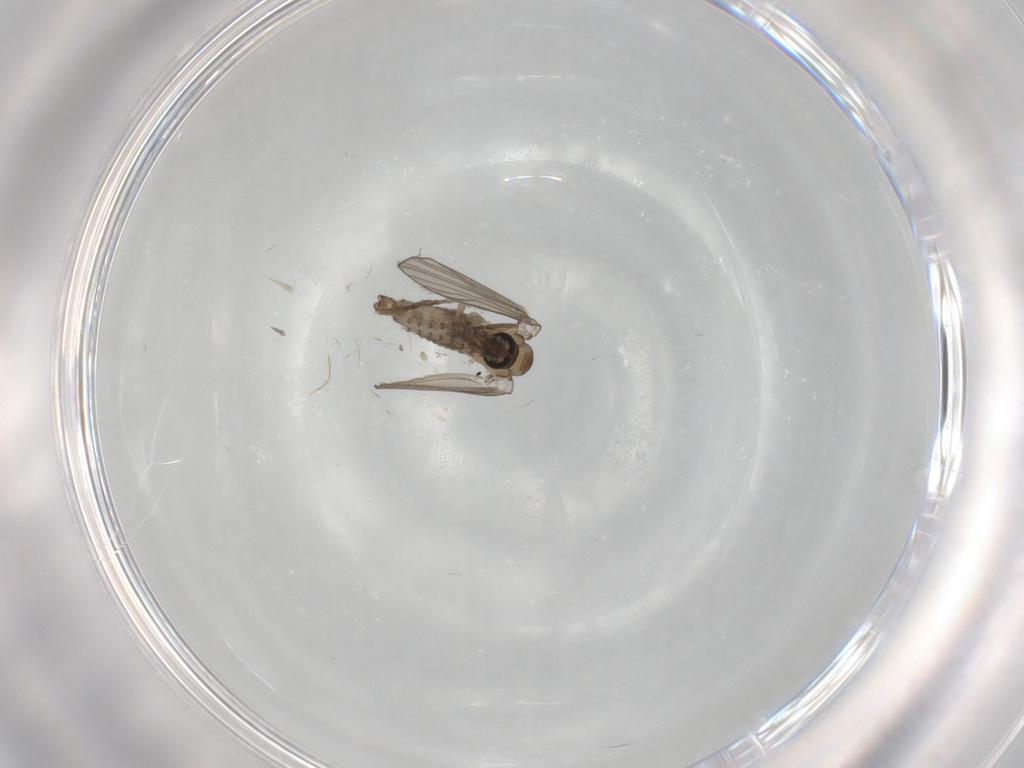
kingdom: Animalia
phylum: Arthropoda
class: Insecta
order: Diptera
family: Psychodidae
